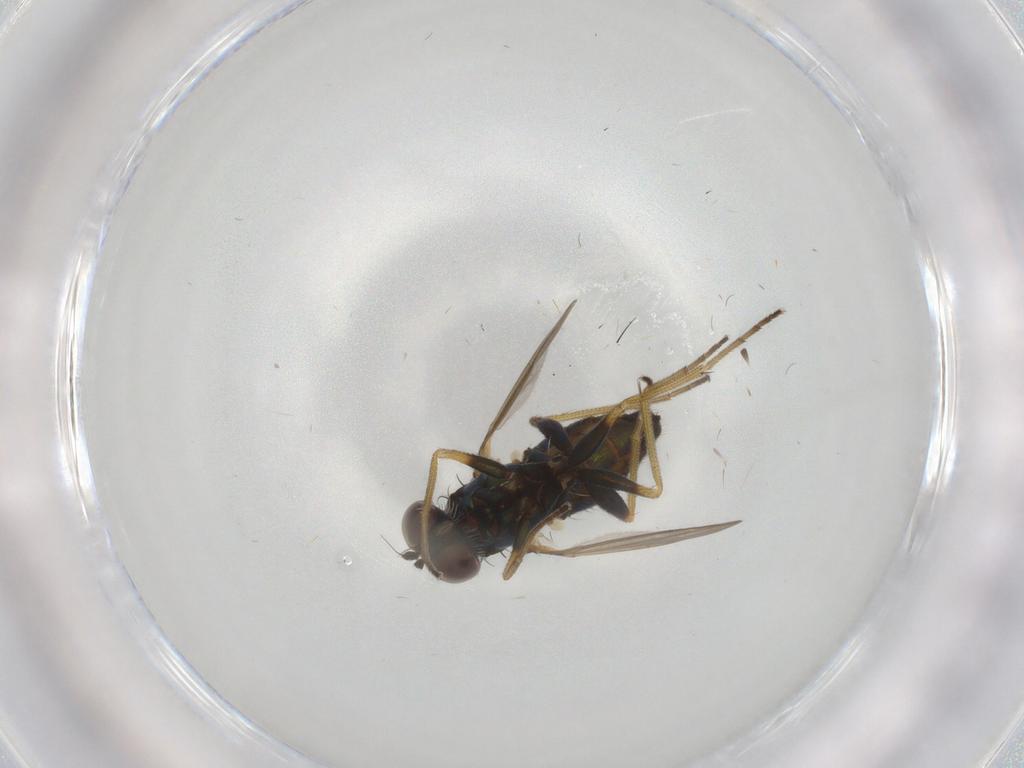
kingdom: Animalia
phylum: Arthropoda
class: Insecta
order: Diptera
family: Dolichopodidae
